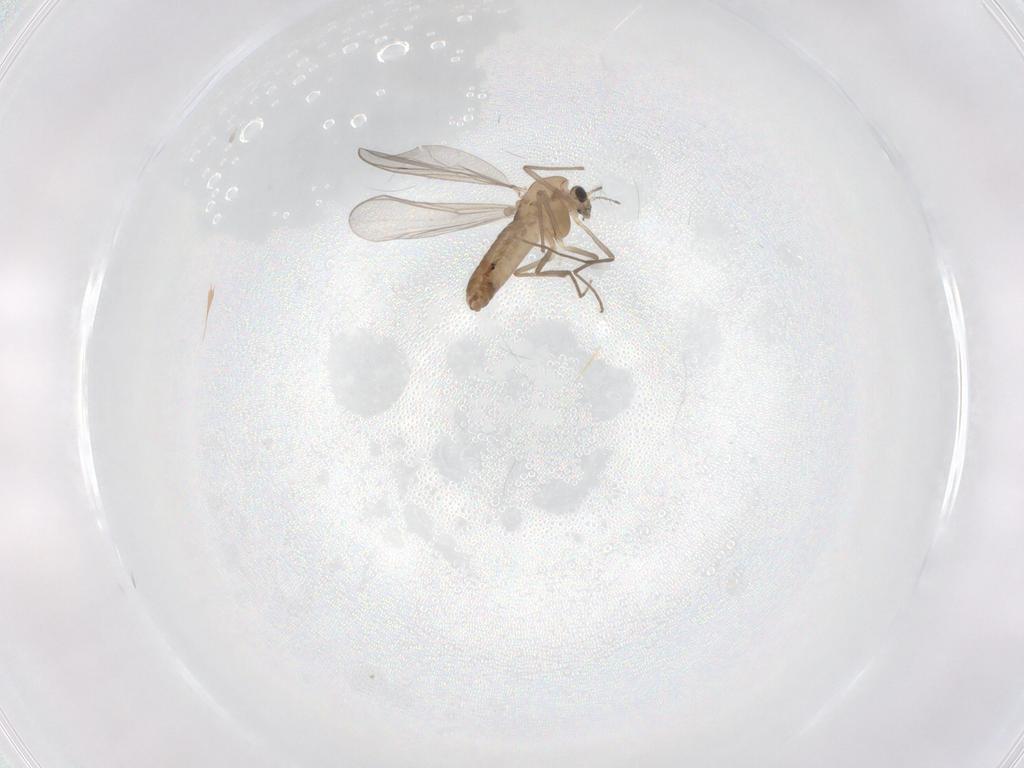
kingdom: Animalia
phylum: Arthropoda
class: Insecta
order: Diptera
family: Chironomidae
